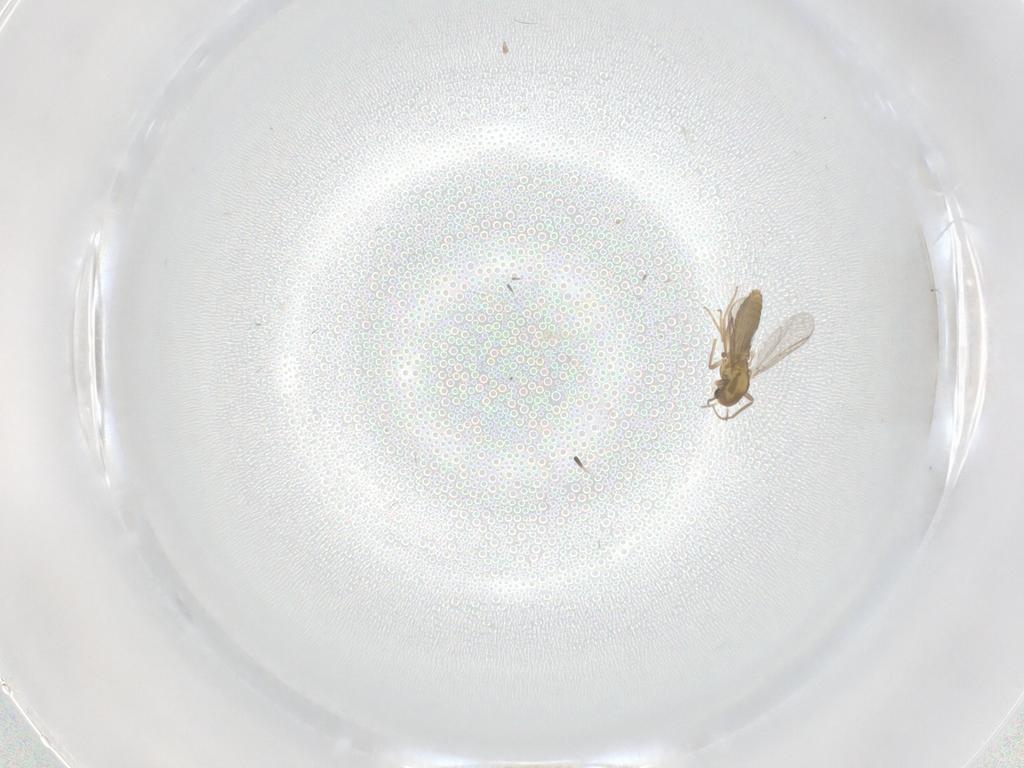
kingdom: Animalia
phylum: Arthropoda
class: Insecta
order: Diptera
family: Chironomidae
